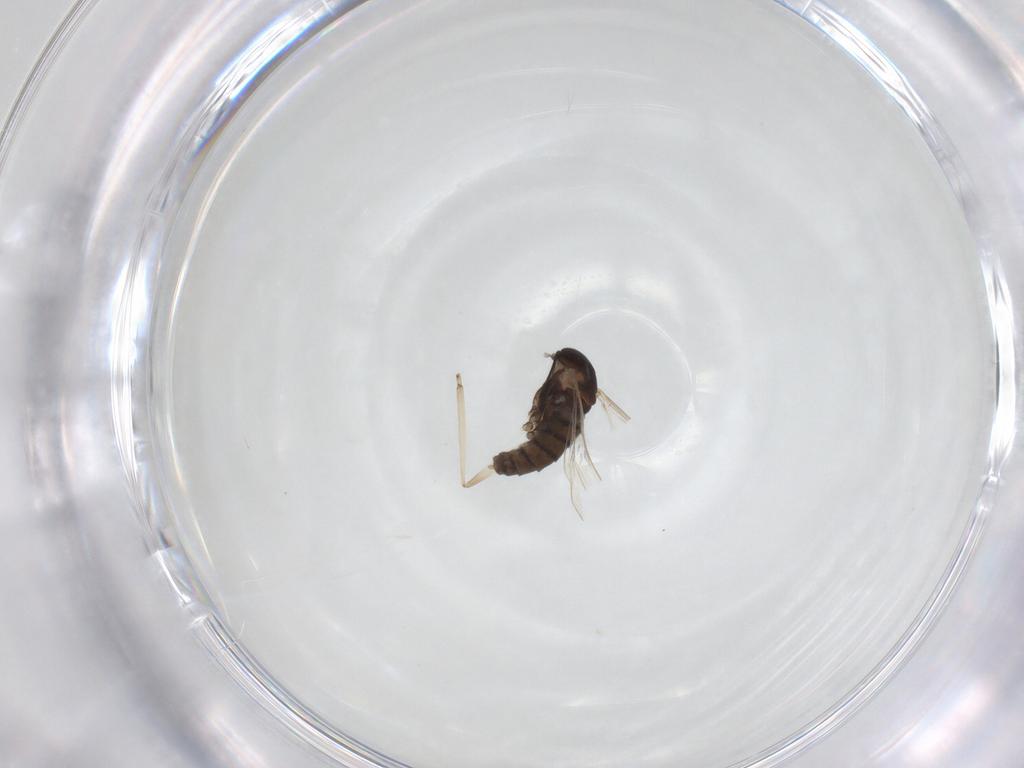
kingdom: Animalia
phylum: Arthropoda
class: Insecta
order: Diptera
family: Cecidomyiidae
